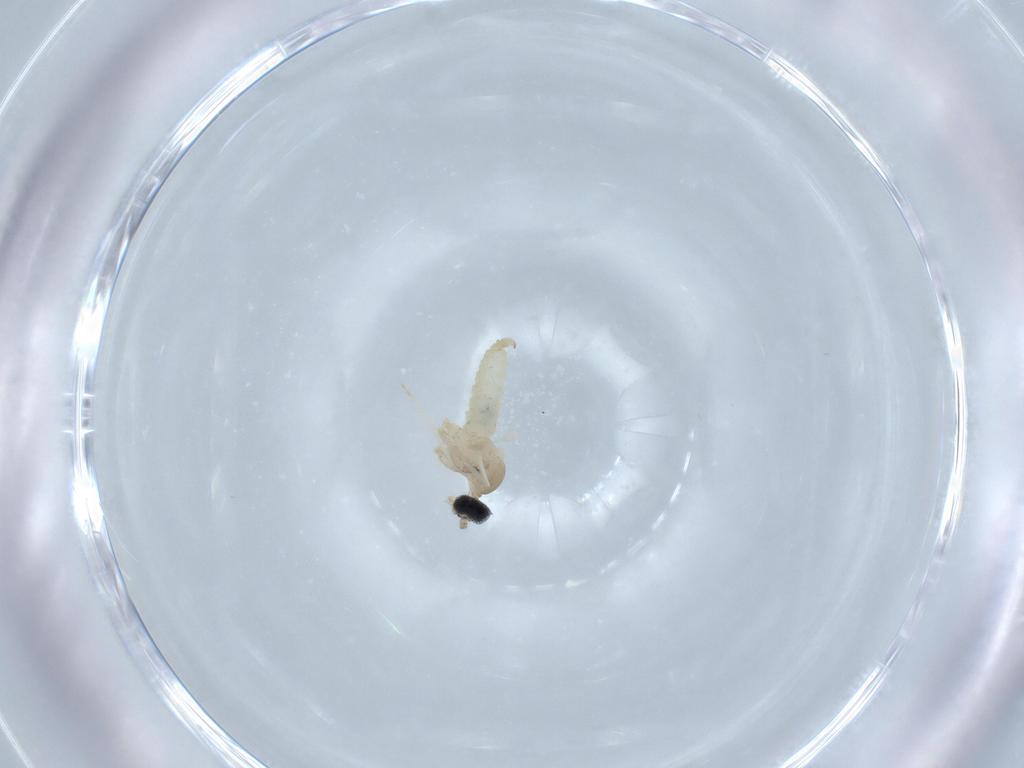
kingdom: Animalia
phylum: Arthropoda
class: Insecta
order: Diptera
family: Cecidomyiidae
